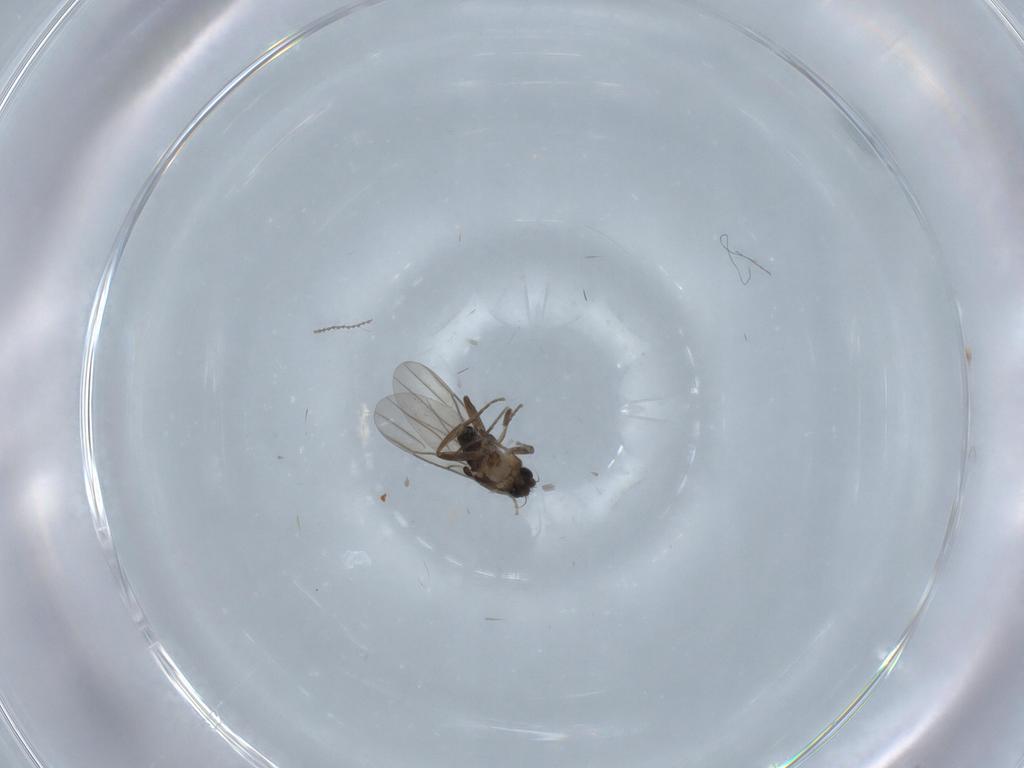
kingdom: Animalia
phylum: Arthropoda
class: Insecta
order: Diptera
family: Phoridae
